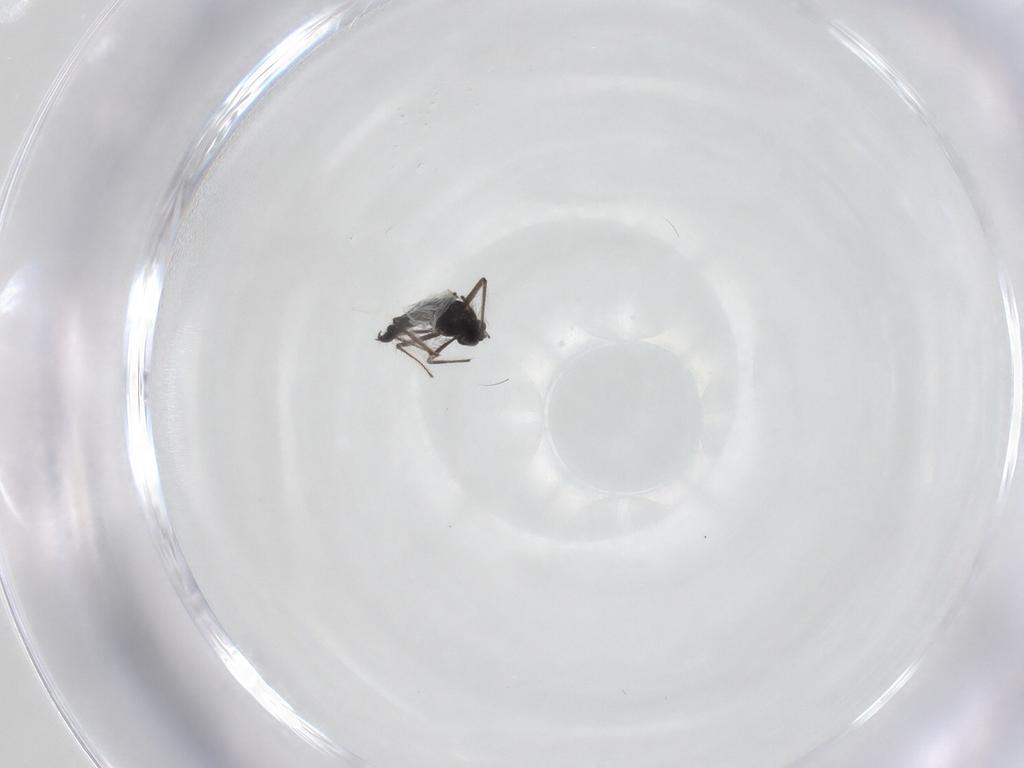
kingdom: Animalia
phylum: Arthropoda
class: Insecta
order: Diptera
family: Chironomidae
